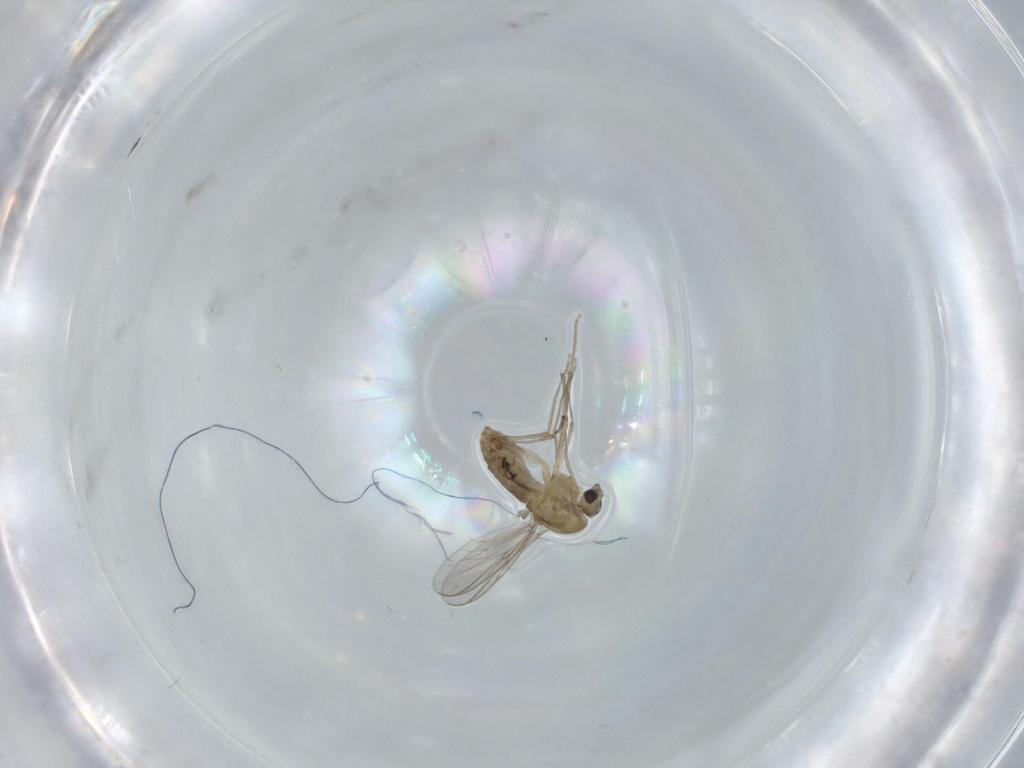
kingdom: Animalia
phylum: Arthropoda
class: Insecta
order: Diptera
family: Chironomidae
